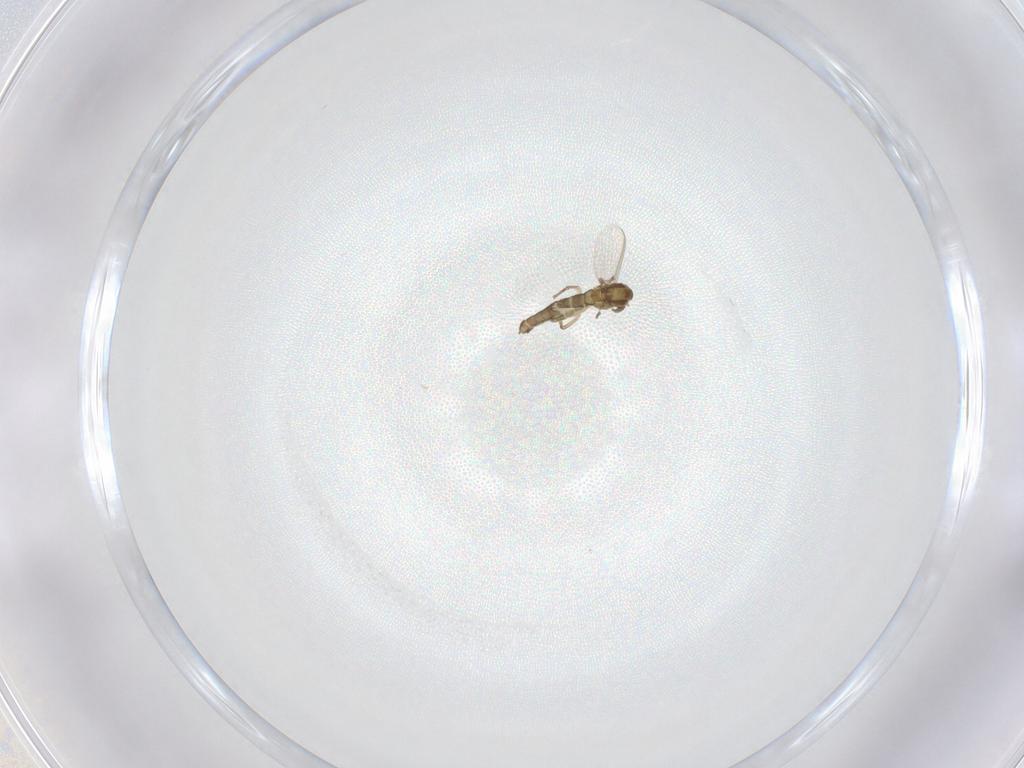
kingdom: Animalia
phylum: Arthropoda
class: Insecta
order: Diptera
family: Chironomidae
